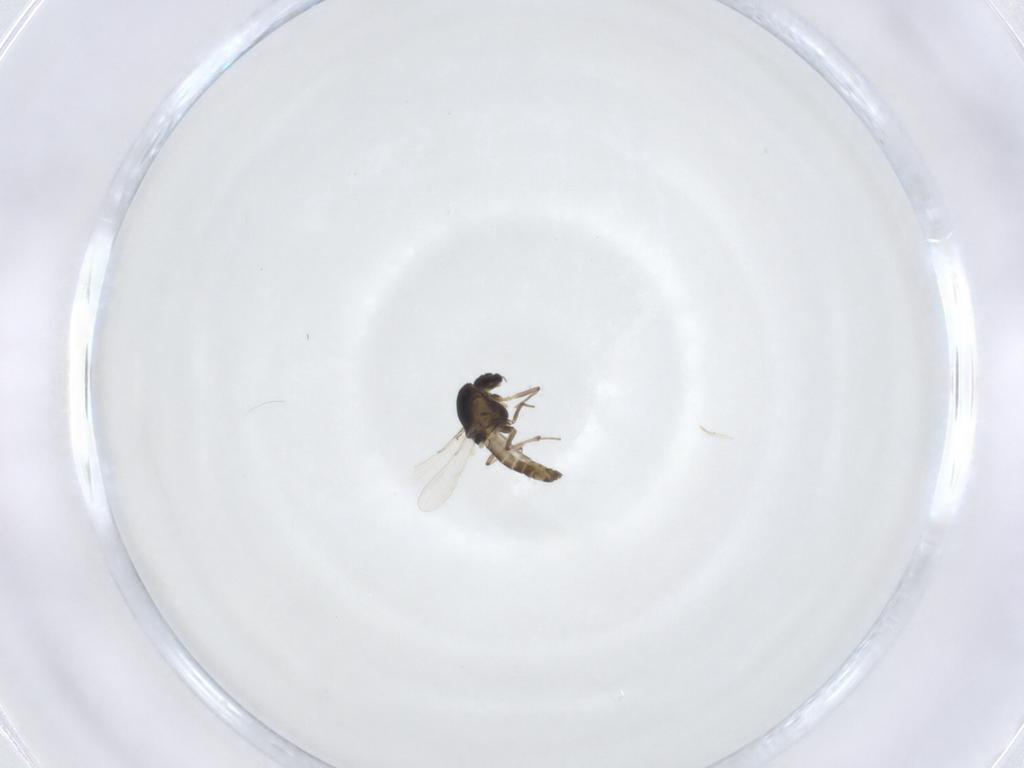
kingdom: Animalia
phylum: Arthropoda
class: Insecta
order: Diptera
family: Chironomidae
